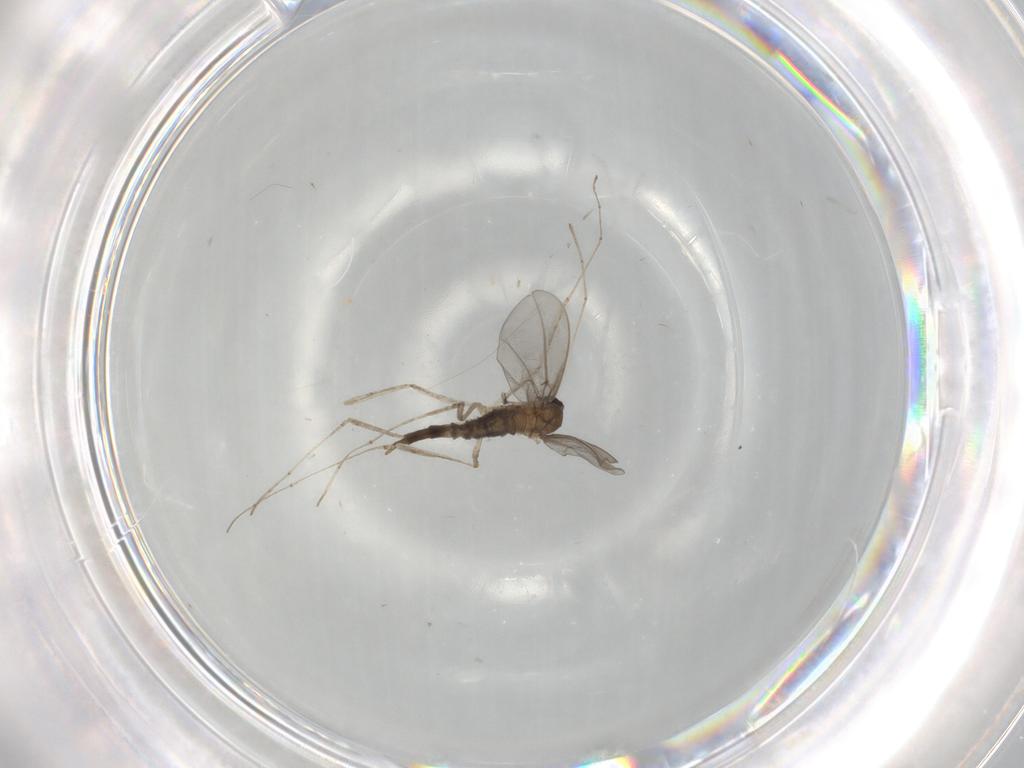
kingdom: Animalia
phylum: Arthropoda
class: Insecta
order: Diptera
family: Cecidomyiidae
